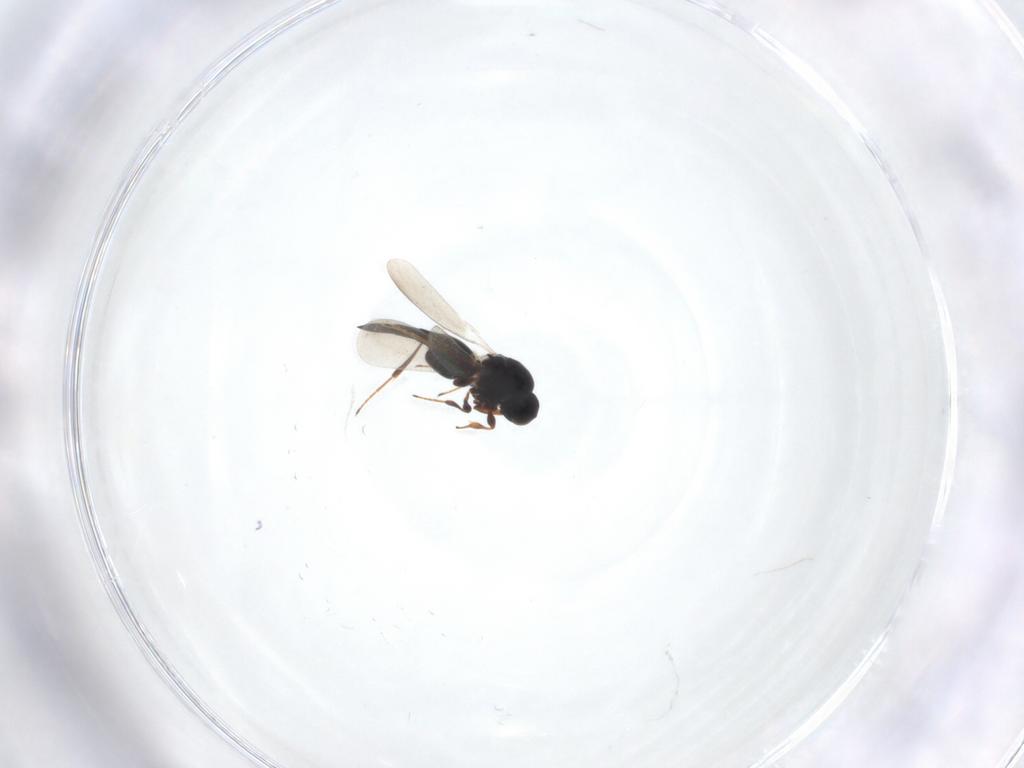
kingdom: Animalia
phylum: Arthropoda
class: Insecta
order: Hymenoptera
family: Platygastridae
